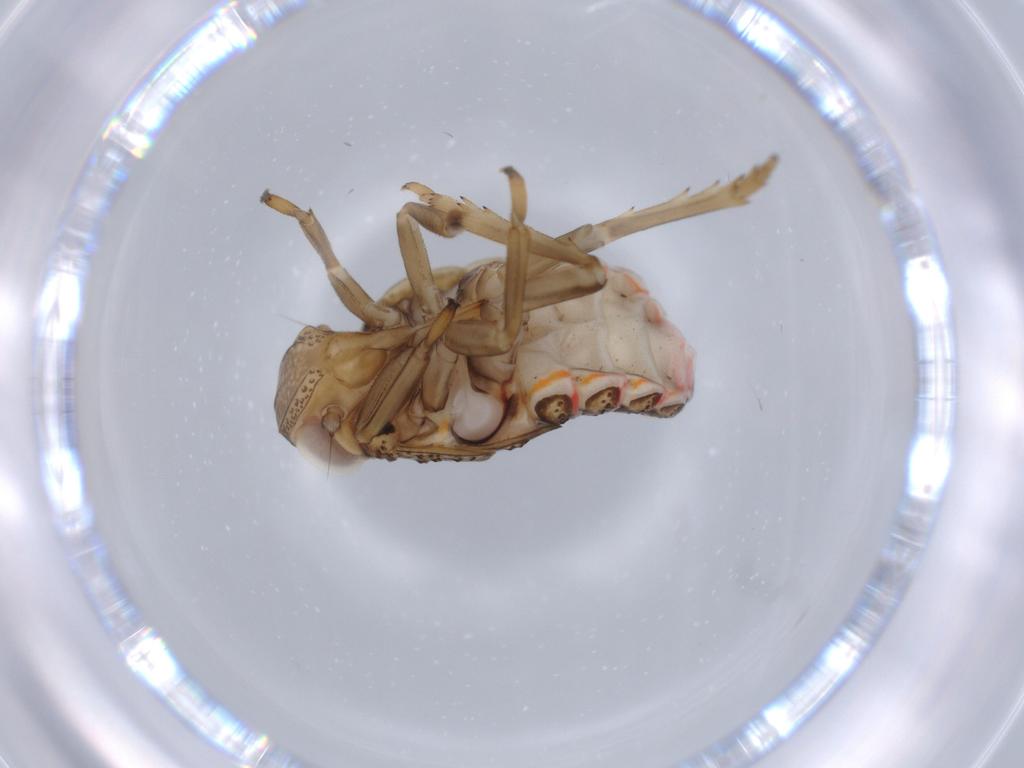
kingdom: Animalia
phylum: Arthropoda
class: Insecta
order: Hemiptera
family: Issidae
